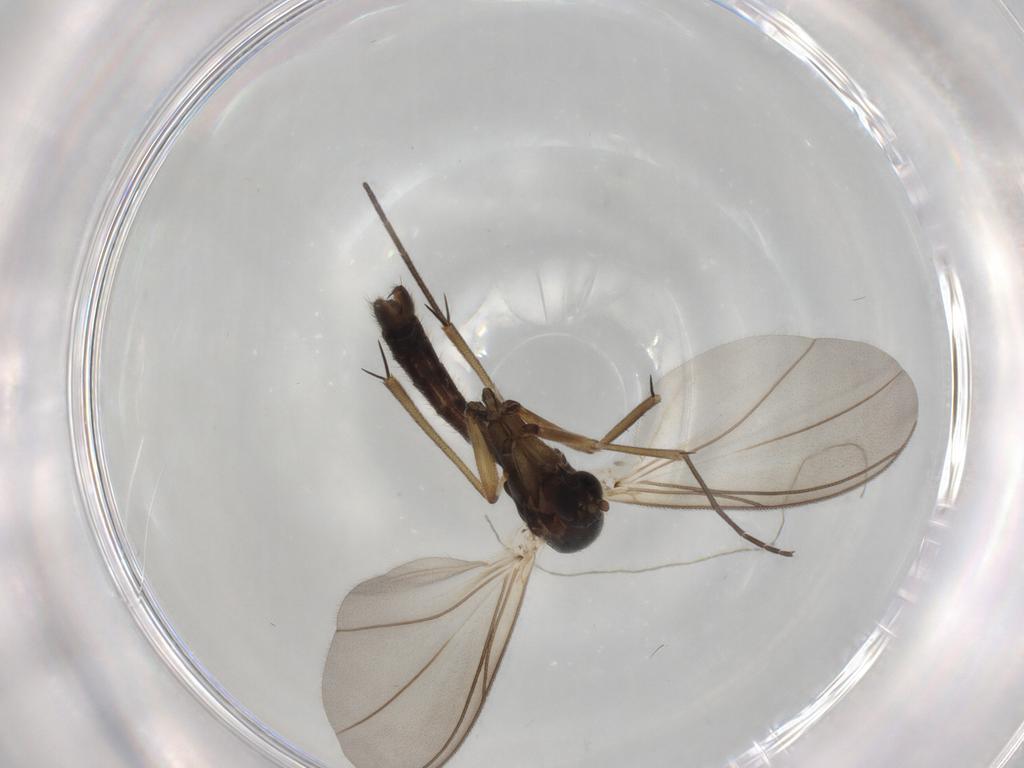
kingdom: Animalia
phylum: Arthropoda
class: Insecta
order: Diptera
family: Mycetophilidae
